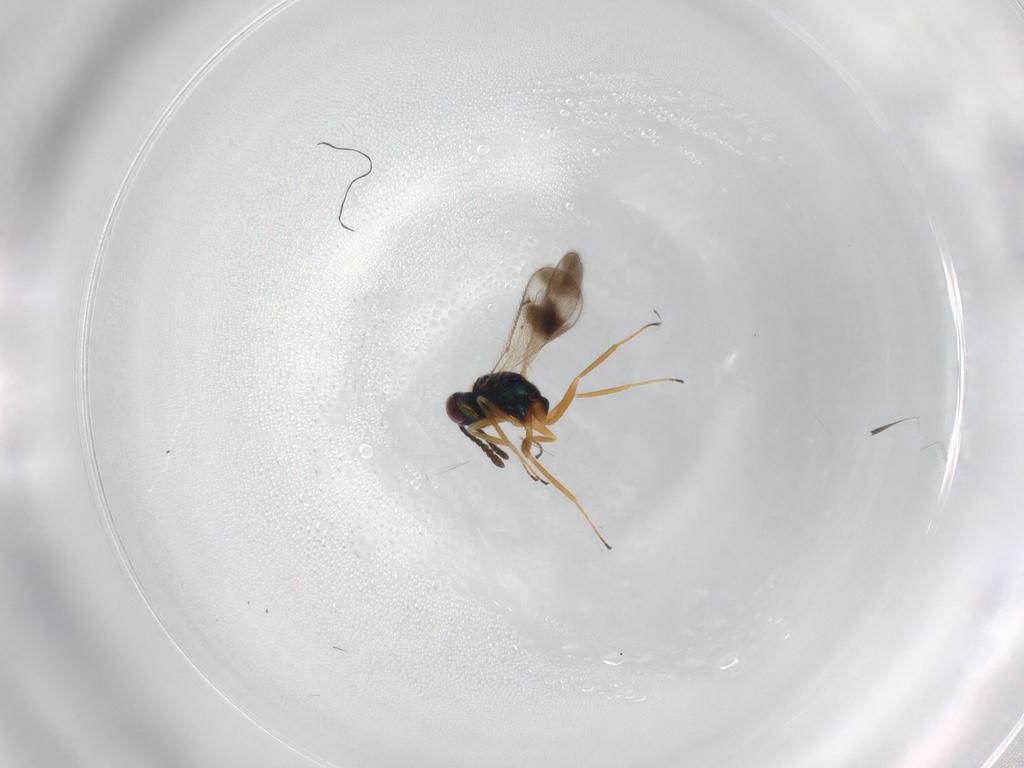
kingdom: Animalia
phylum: Arthropoda
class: Insecta
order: Hymenoptera
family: Tetracampidae
